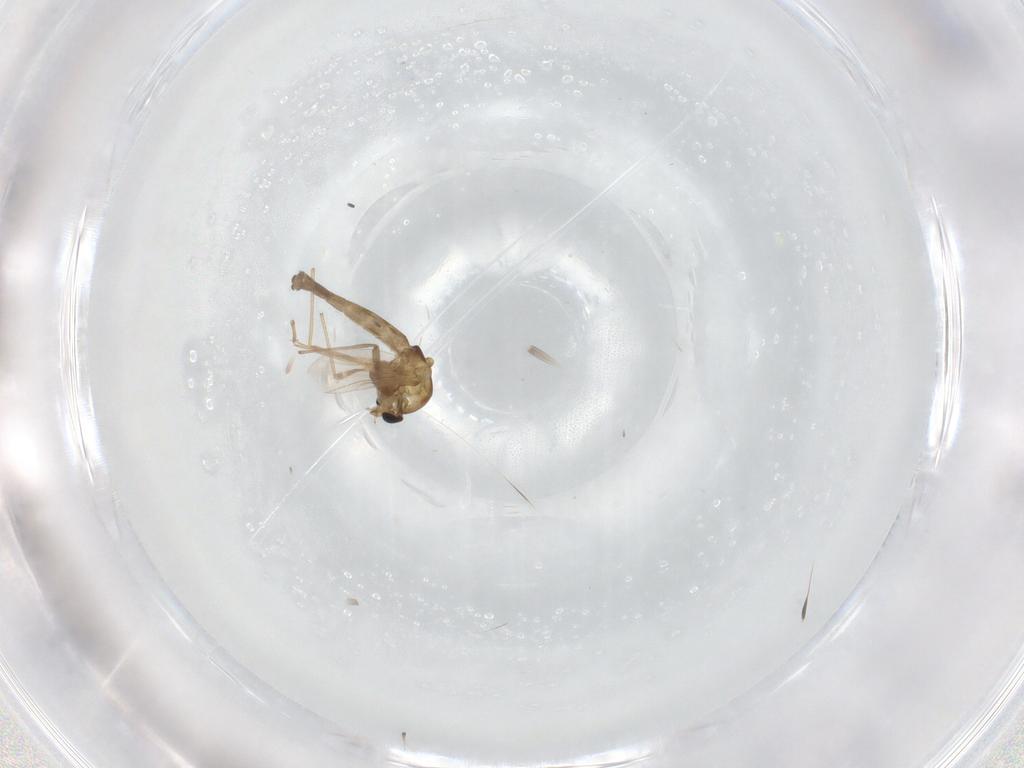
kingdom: Animalia
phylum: Arthropoda
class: Insecta
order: Diptera
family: Chironomidae
